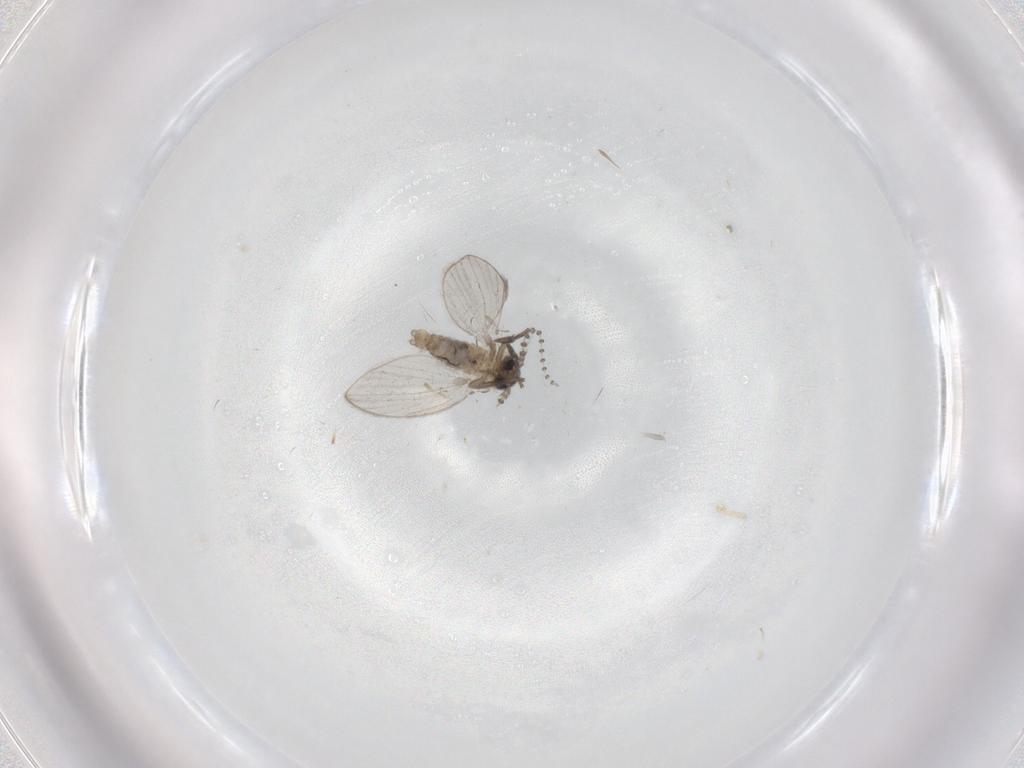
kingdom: Animalia
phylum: Arthropoda
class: Insecta
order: Diptera
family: Psychodidae
